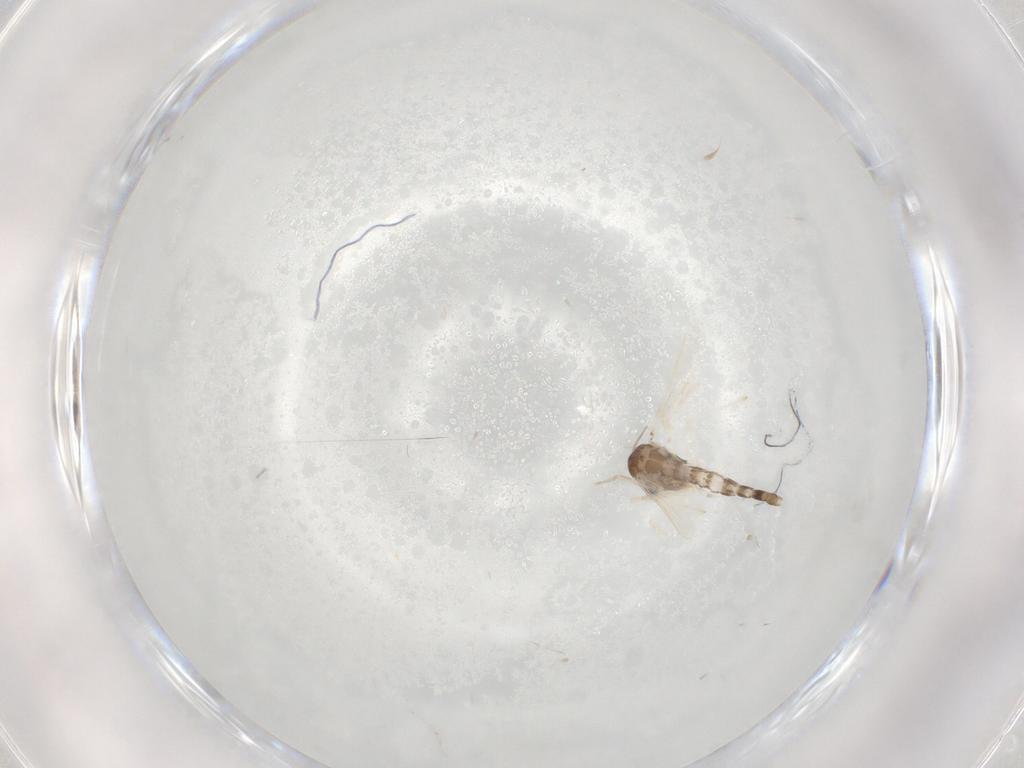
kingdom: Animalia
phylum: Arthropoda
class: Insecta
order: Diptera
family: Chironomidae
